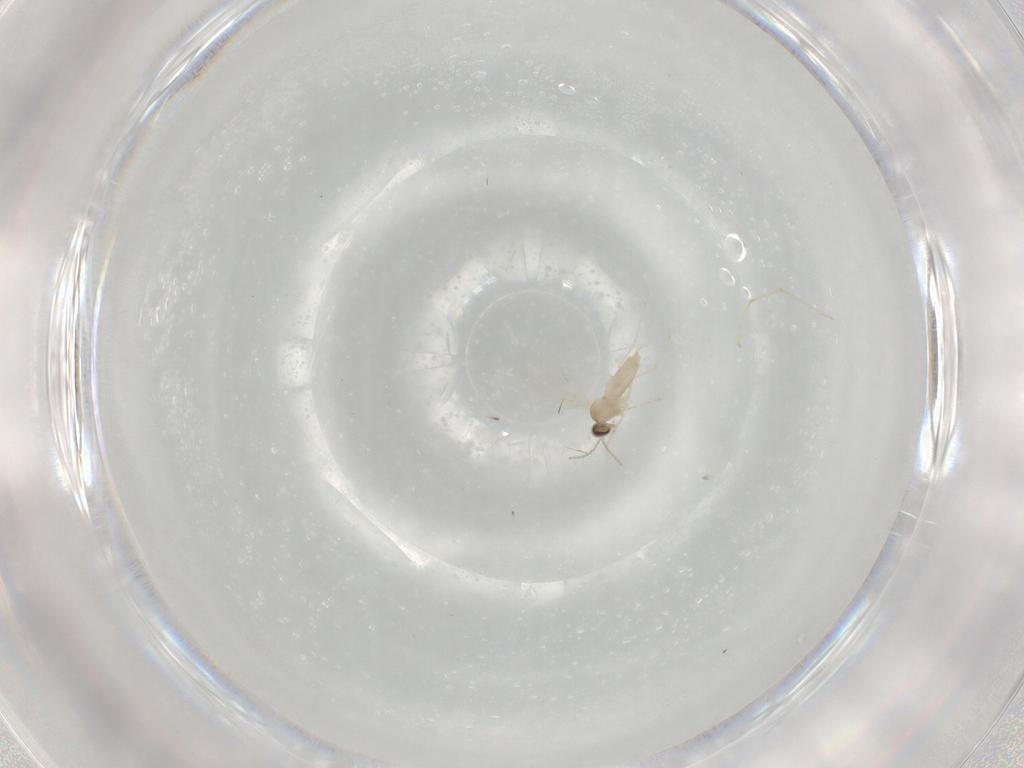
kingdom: Animalia
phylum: Arthropoda
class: Insecta
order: Diptera
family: Cecidomyiidae
